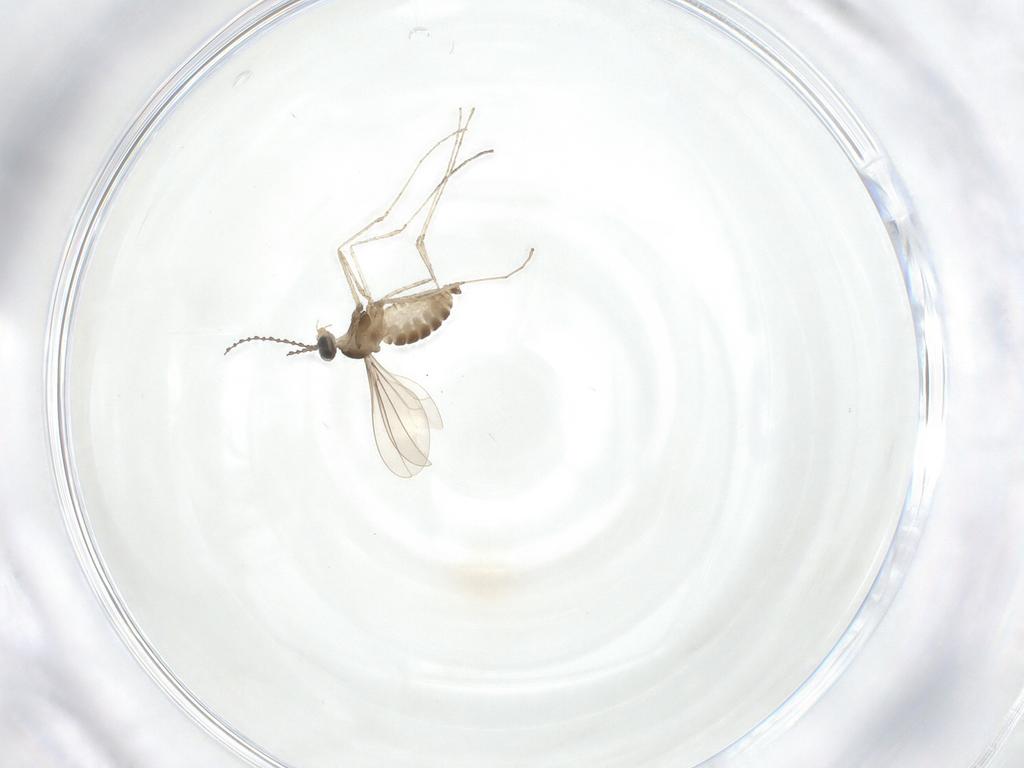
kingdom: Animalia
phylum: Arthropoda
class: Insecta
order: Diptera
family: Cecidomyiidae
